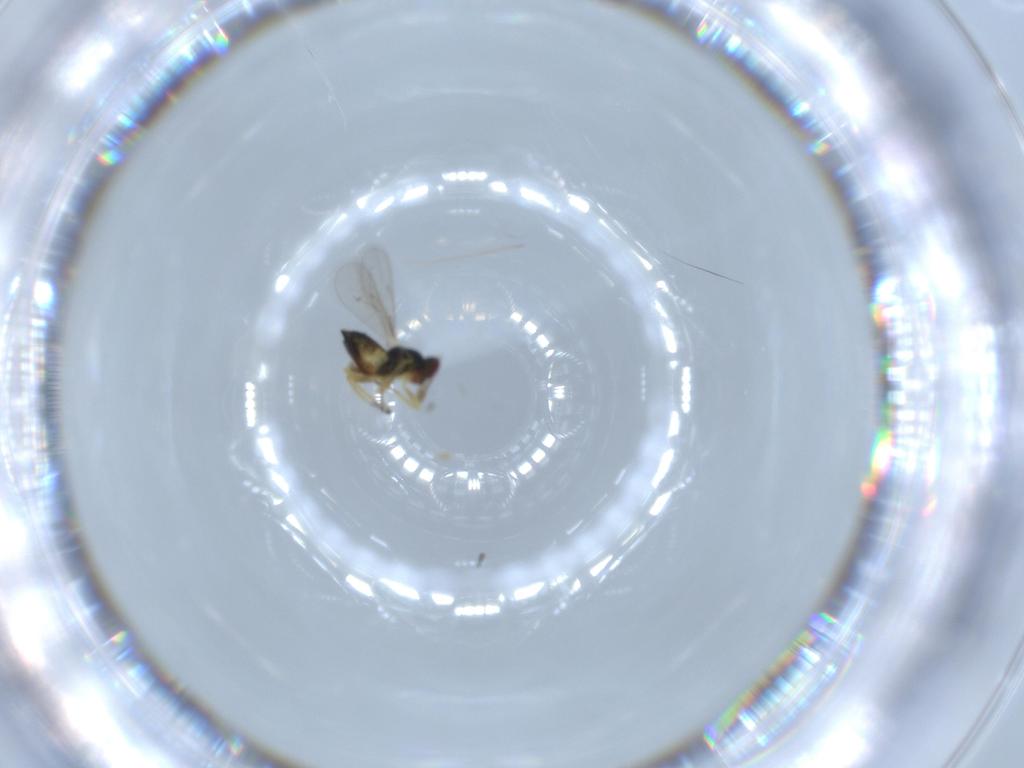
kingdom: Animalia
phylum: Arthropoda
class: Insecta
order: Hymenoptera
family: Eulophidae
